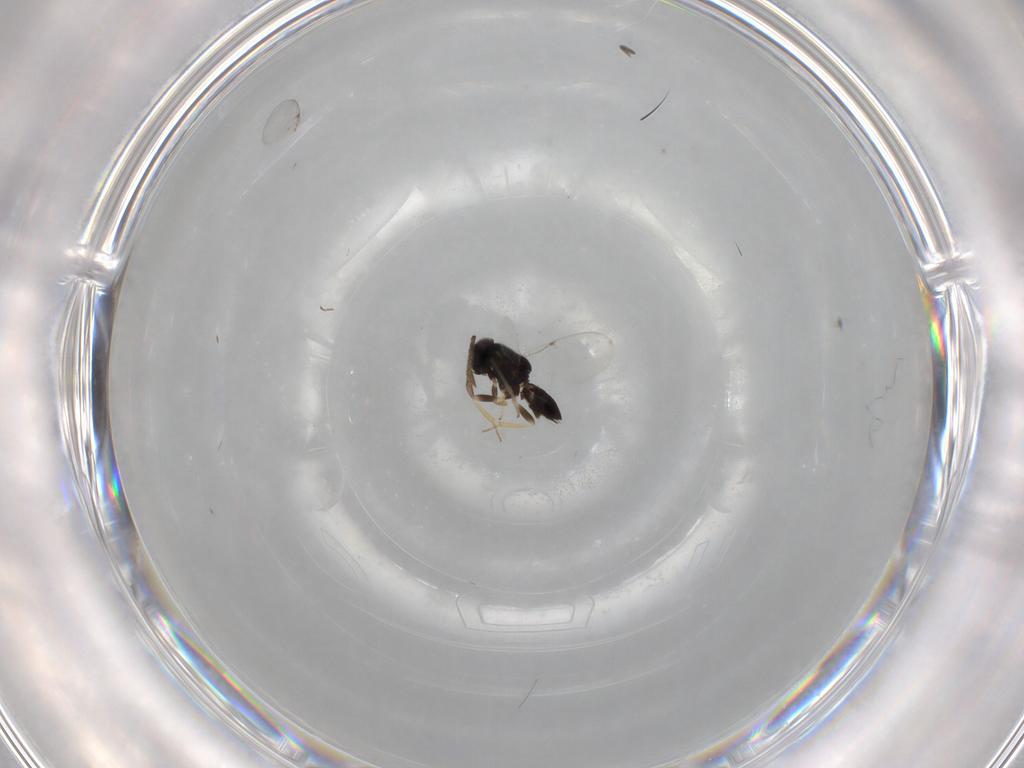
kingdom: Animalia
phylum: Arthropoda
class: Insecta
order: Hymenoptera
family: Encyrtidae
